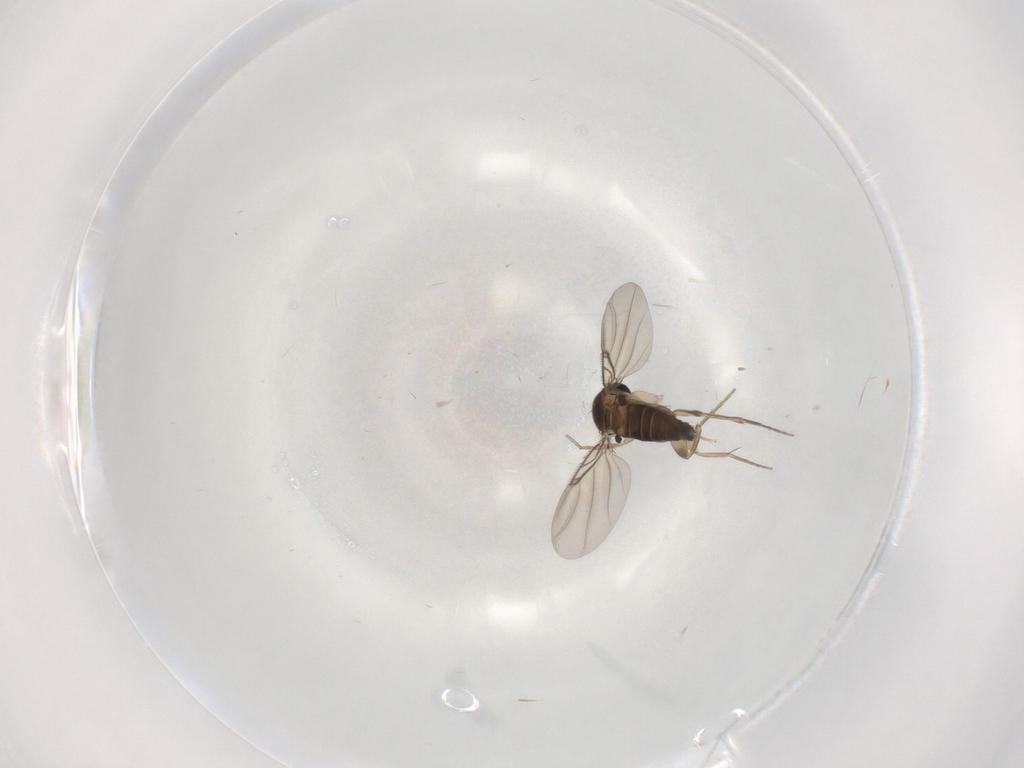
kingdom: Animalia
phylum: Arthropoda
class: Insecta
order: Diptera
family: Phoridae
